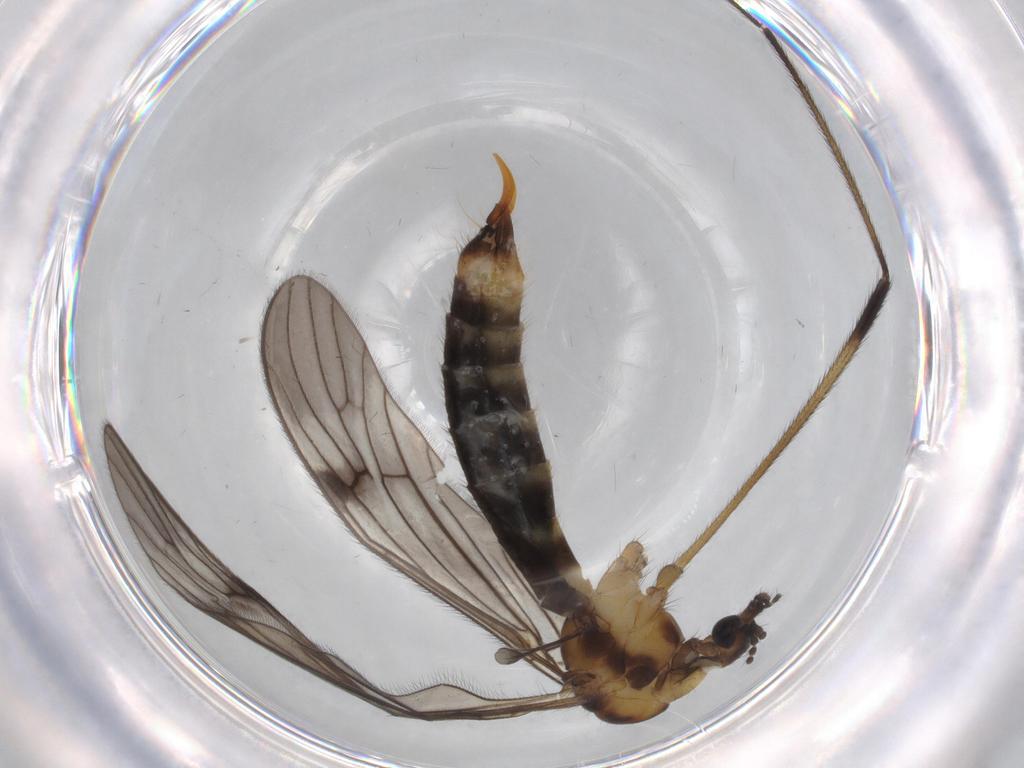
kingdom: Animalia
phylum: Arthropoda
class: Insecta
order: Diptera
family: Limoniidae
